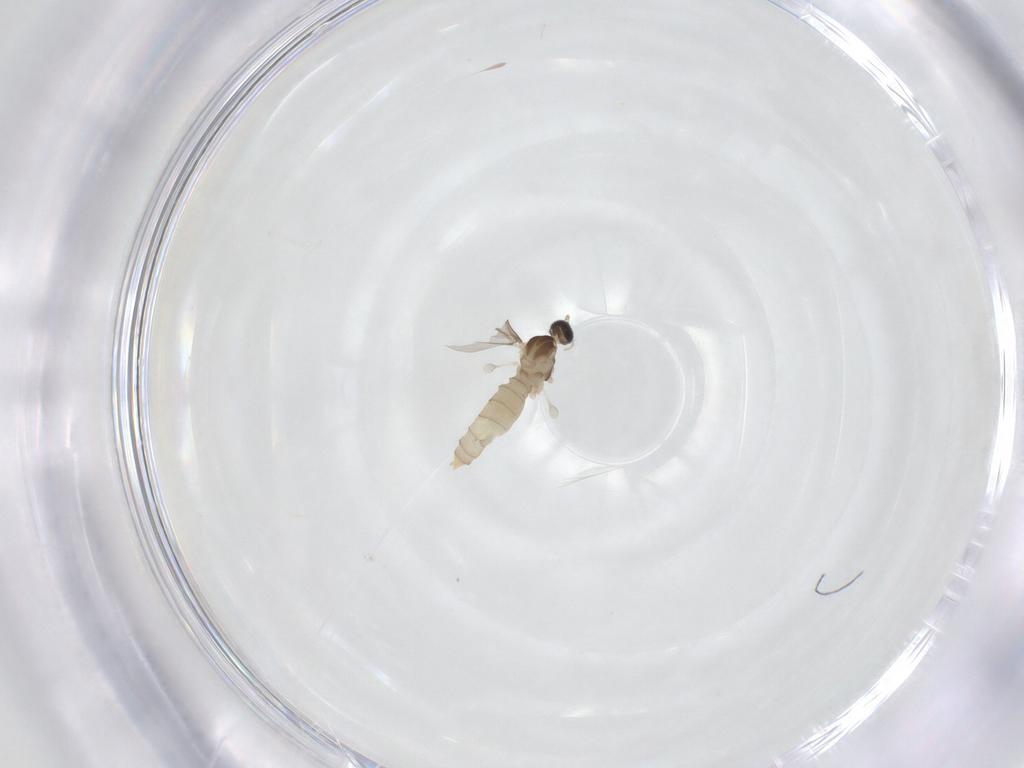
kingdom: Animalia
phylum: Arthropoda
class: Insecta
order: Diptera
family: Cecidomyiidae
